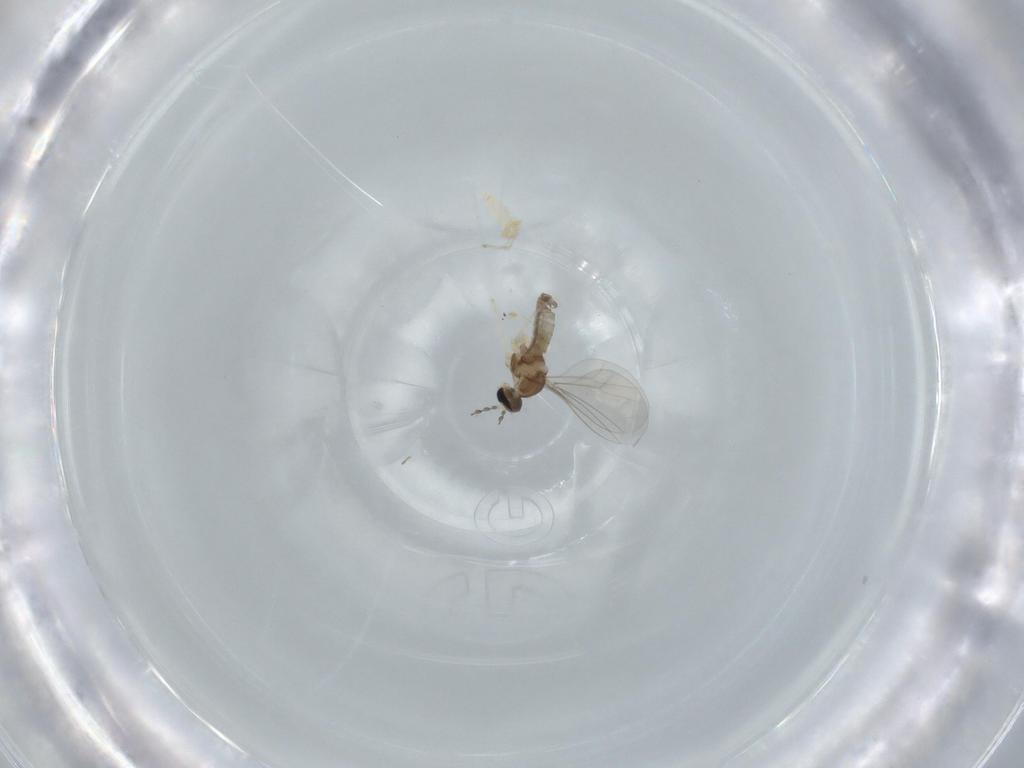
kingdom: Animalia
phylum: Arthropoda
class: Insecta
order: Diptera
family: Cecidomyiidae
